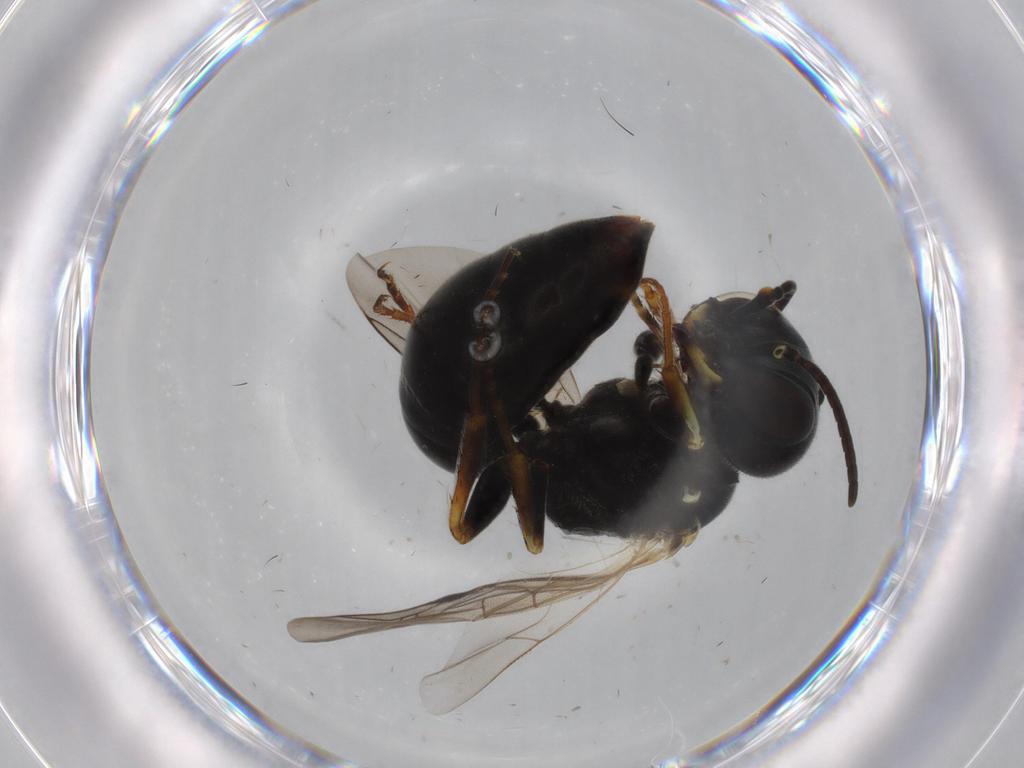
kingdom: Animalia
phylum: Arthropoda
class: Insecta
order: Hymenoptera
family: Crabronidae
